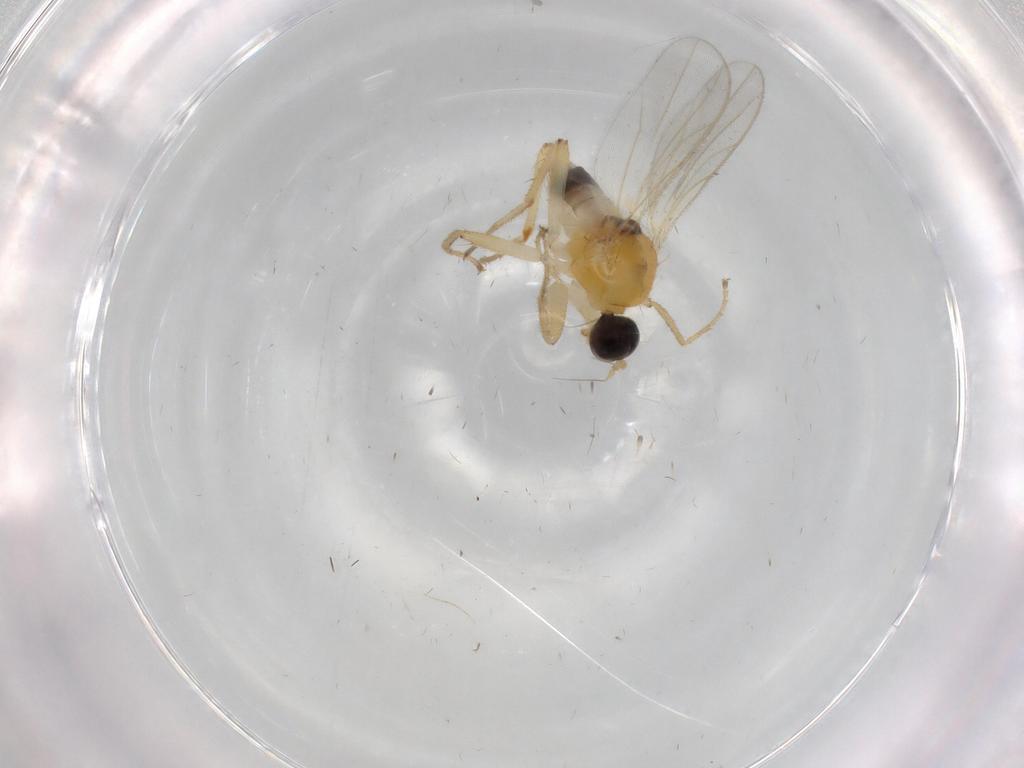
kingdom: Animalia
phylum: Arthropoda
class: Insecta
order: Diptera
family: Hybotidae
